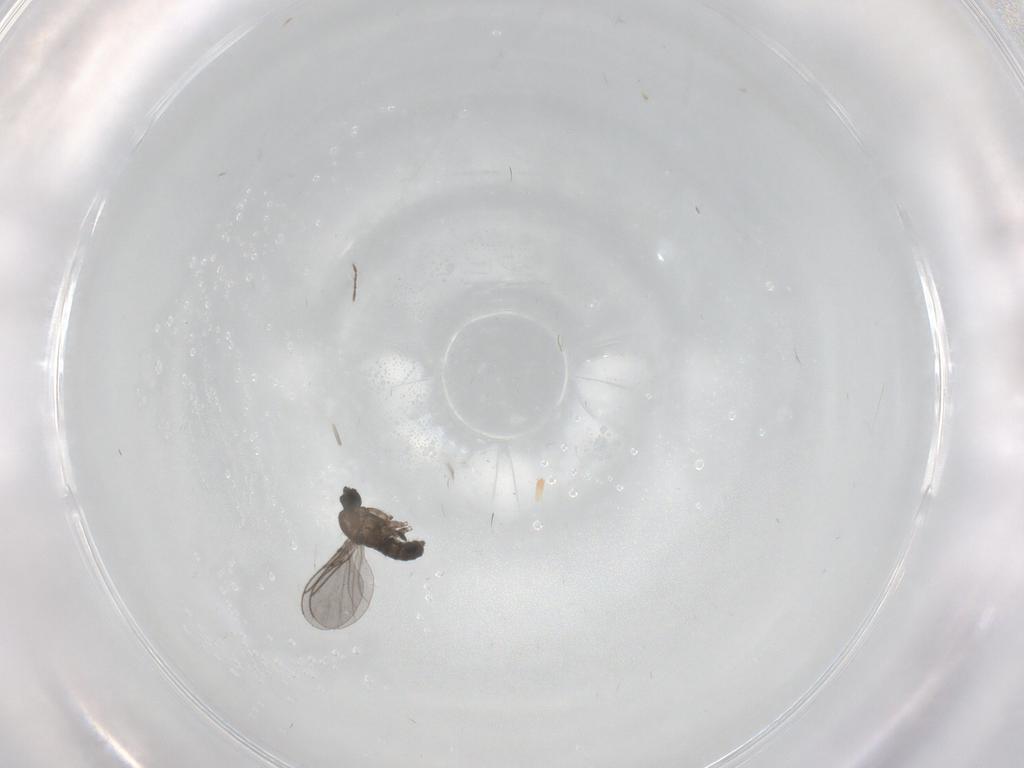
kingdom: Animalia
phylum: Arthropoda
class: Insecta
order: Diptera
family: Ceratopogonidae
